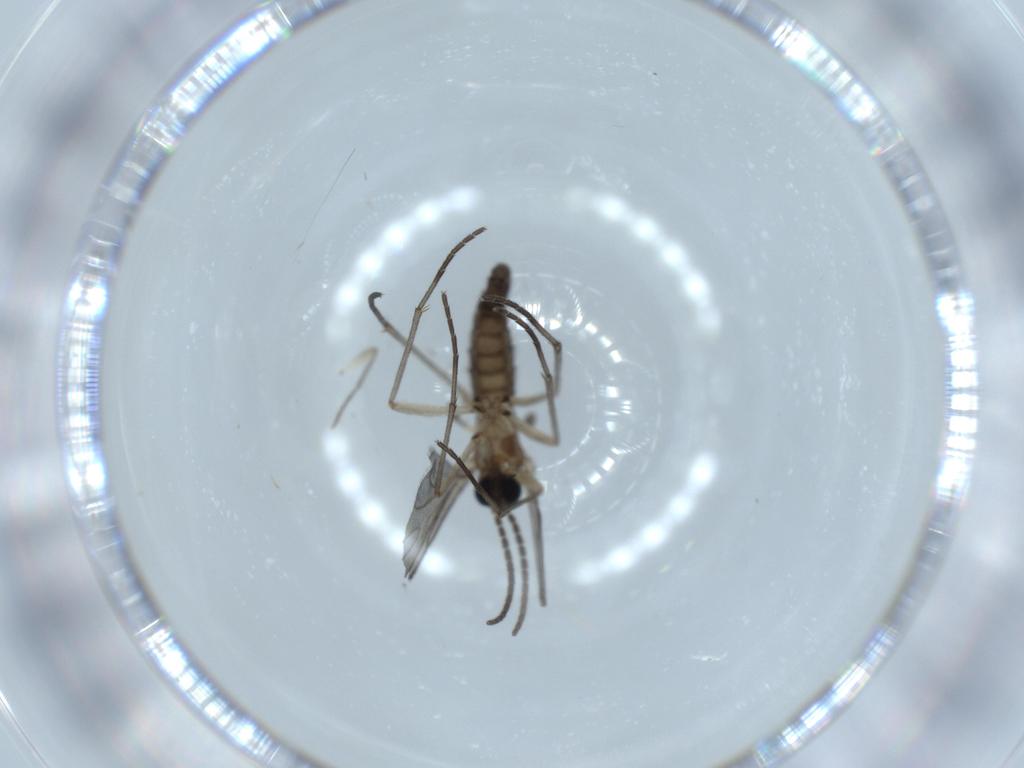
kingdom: Animalia
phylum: Arthropoda
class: Insecta
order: Diptera
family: Sciaridae
